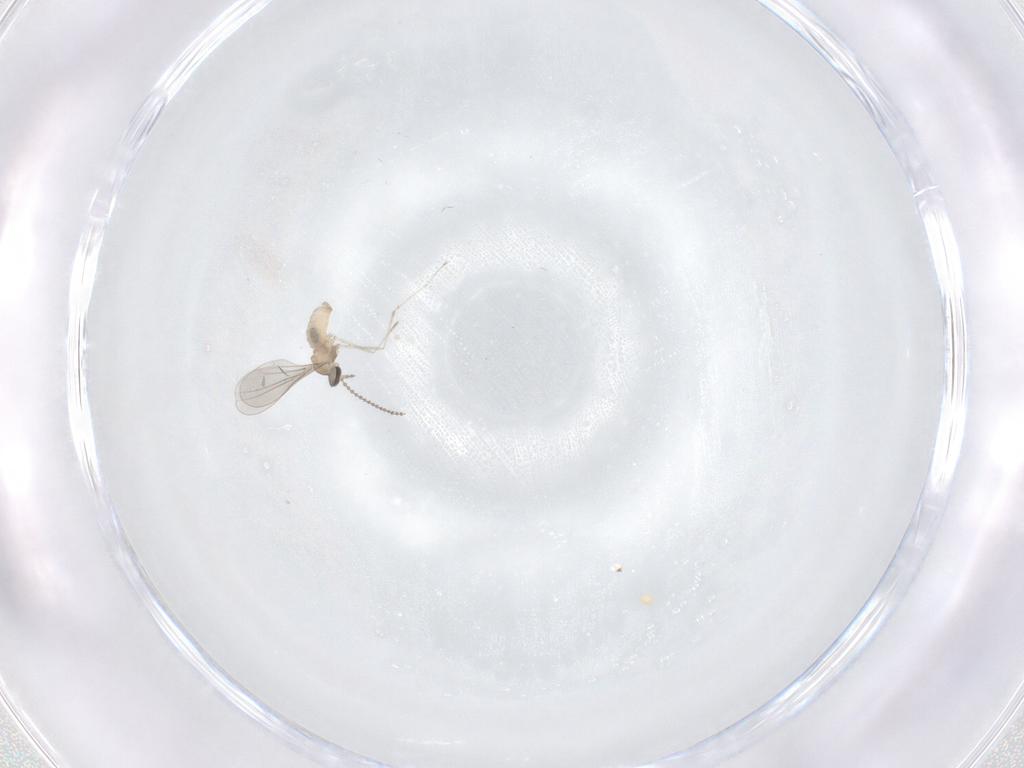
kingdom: Animalia
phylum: Arthropoda
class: Insecta
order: Diptera
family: Cecidomyiidae
